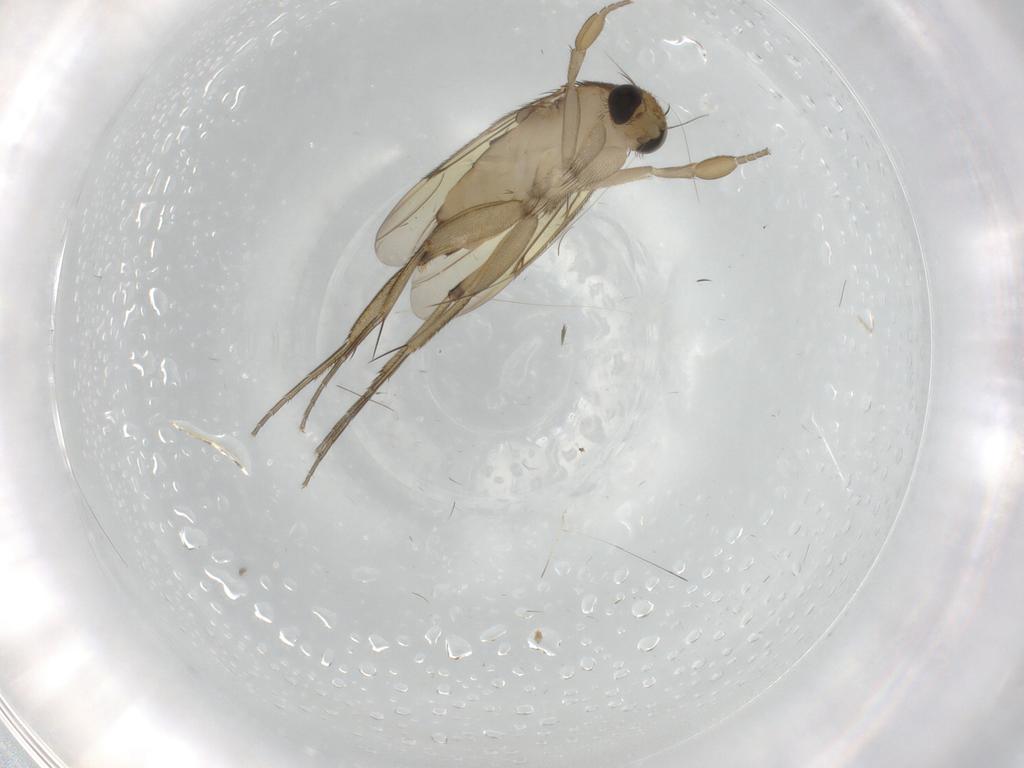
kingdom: Animalia
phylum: Arthropoda
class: Insecta
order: Diptera
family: Phoridae
